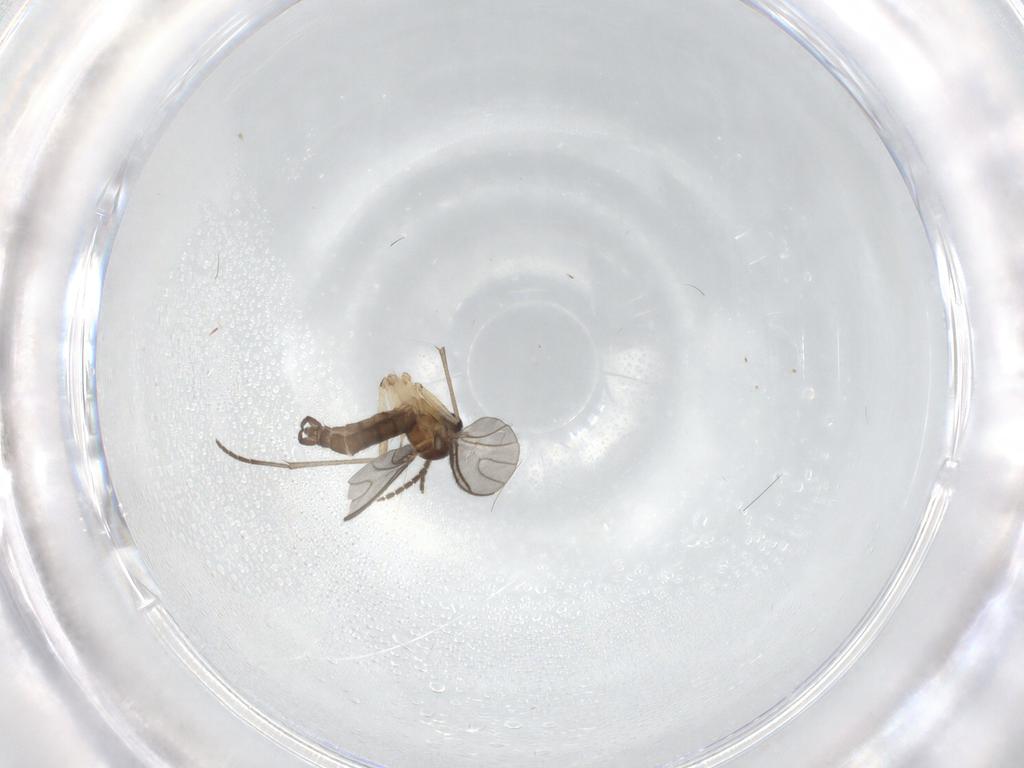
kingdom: Animalia
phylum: Arthropoda
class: Insecta
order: Diptera
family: Sciaridae
